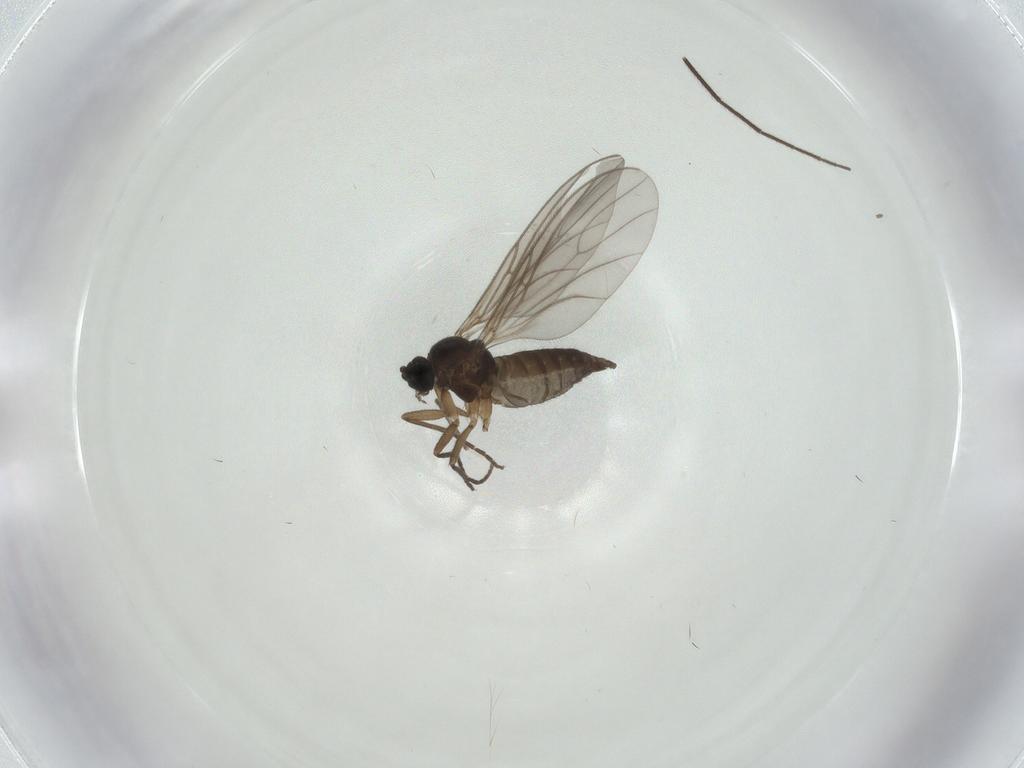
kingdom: Animalia
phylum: Arthropoda
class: Insecta
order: Diptera
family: Sciaridae
